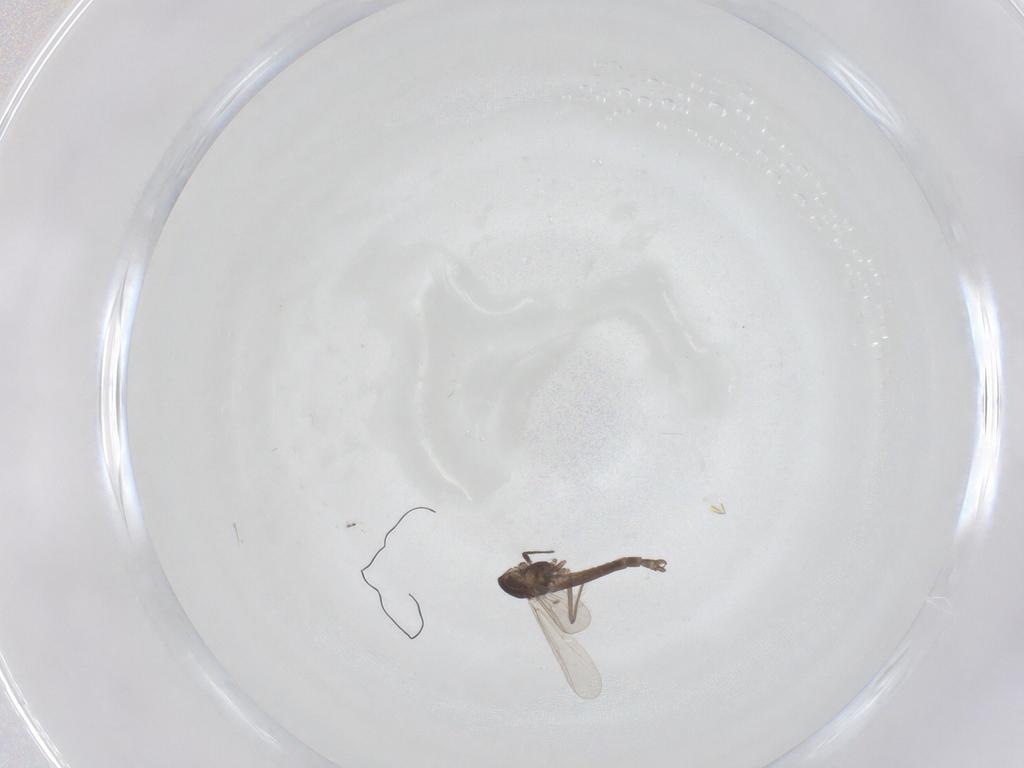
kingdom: Animalia
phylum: Arthropoda
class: Insecta
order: Diptera
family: Chironomidae
